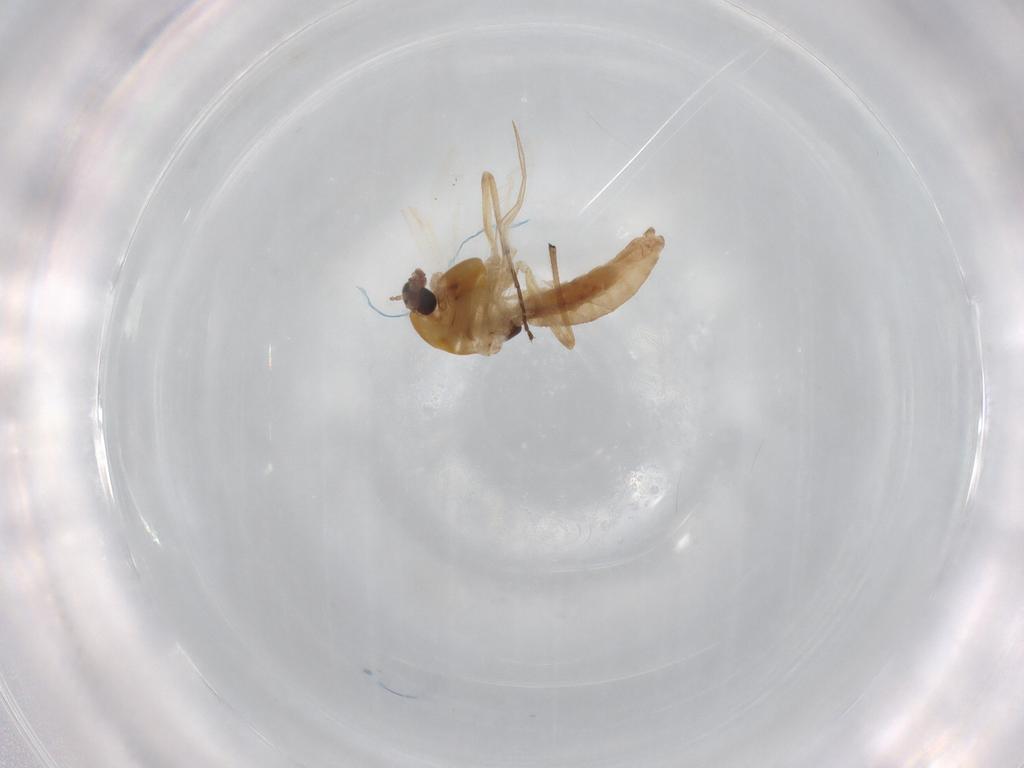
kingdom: Animalia
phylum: Arthropoda
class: Insecta
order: Diptera
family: Chironomidae
